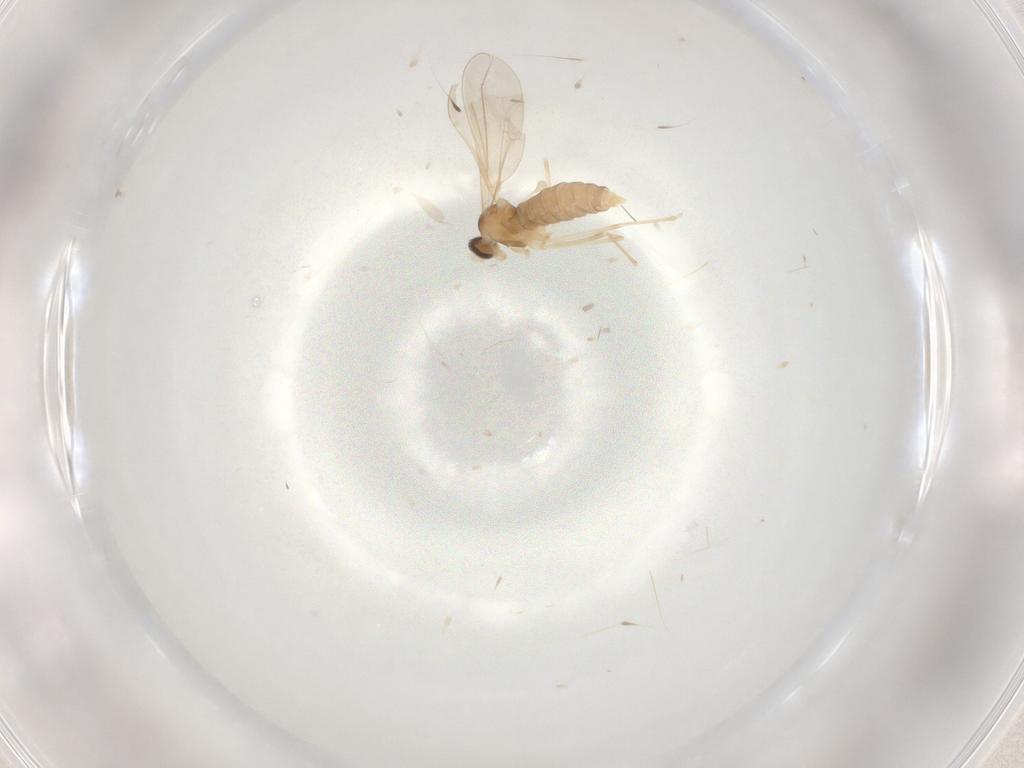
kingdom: Animalia
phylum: Arthropoda
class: Insecta
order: Diptera
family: Cecidomyiidae
